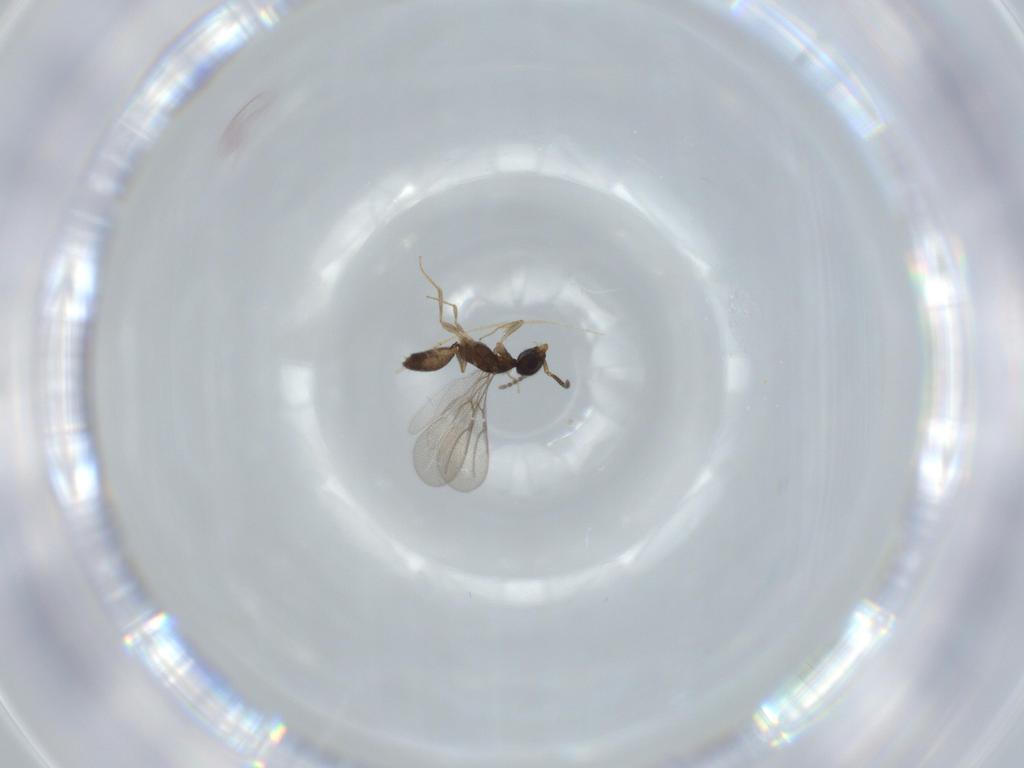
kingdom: Animalia
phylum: Arthropoda
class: Insecta
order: Hymenoptera
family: Bethylidae
